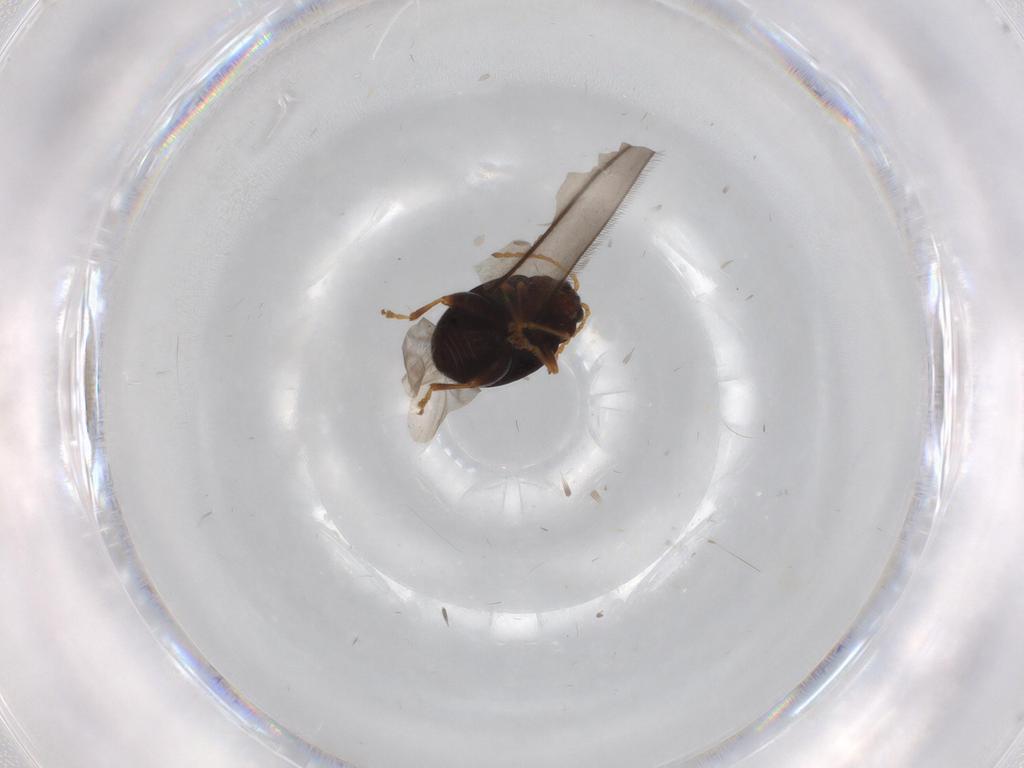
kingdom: Animalia
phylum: Arthropoda
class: Insecta
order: Coleoptera
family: Chrysomelidae
